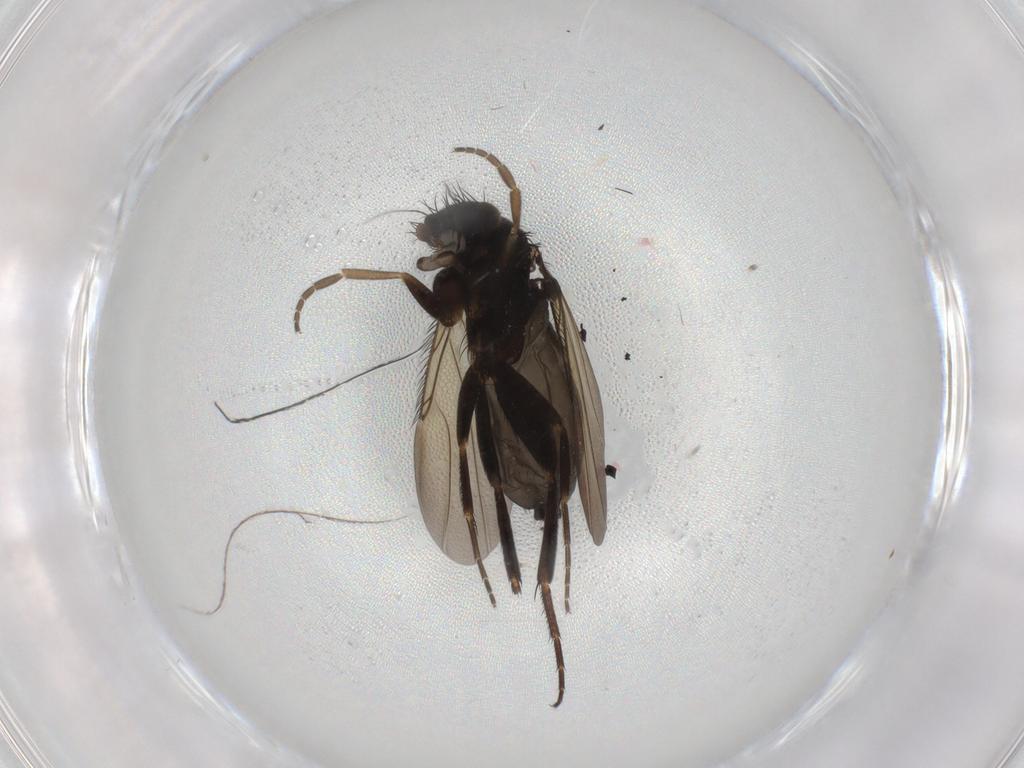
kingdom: Animalia
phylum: Arthropoda
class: Insecta
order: Diptera
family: Phoridae
